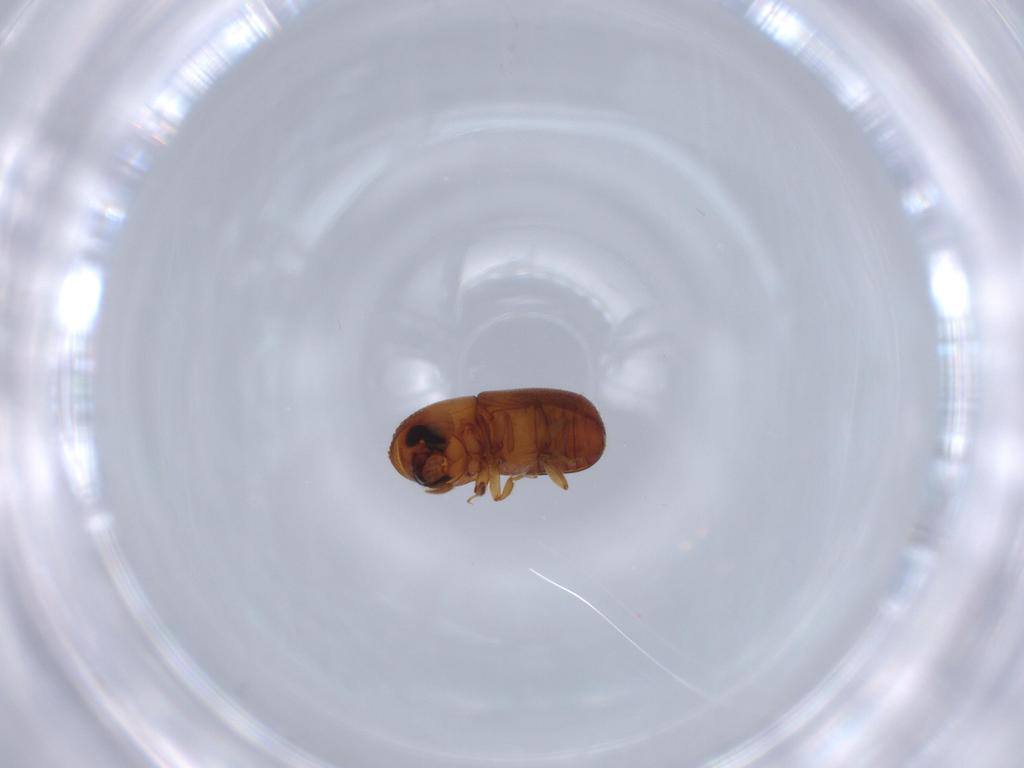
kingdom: Animalia
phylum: Arthropoda
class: Insecta
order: Coleoptera
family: Curculionidae
